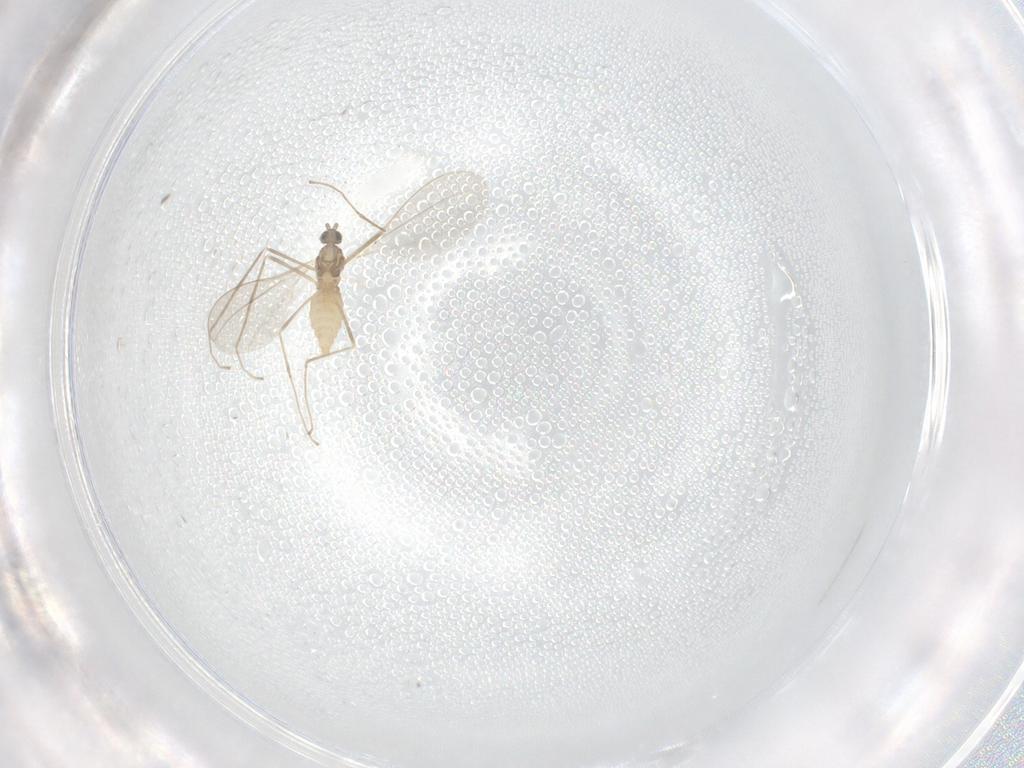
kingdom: Animalia
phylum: Arthropoda
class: Insecta
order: Diptera
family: Cecidomyiidae
